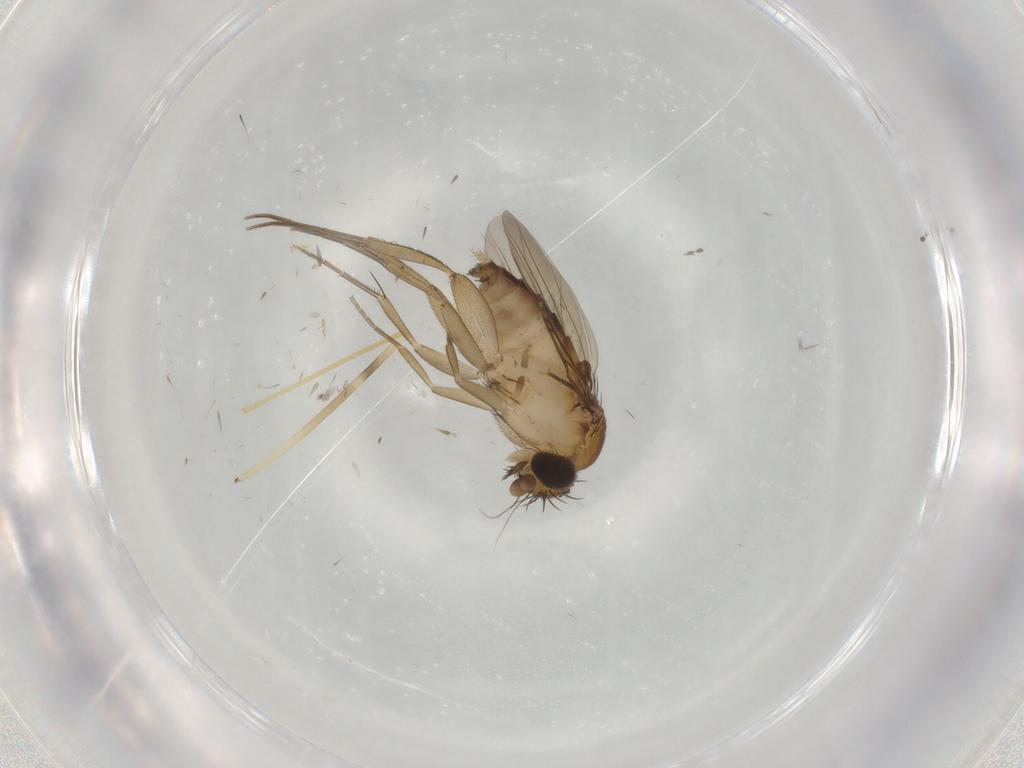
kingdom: Animalia
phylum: Arthropoda
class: Insecta
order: Diptera
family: Phoridae
